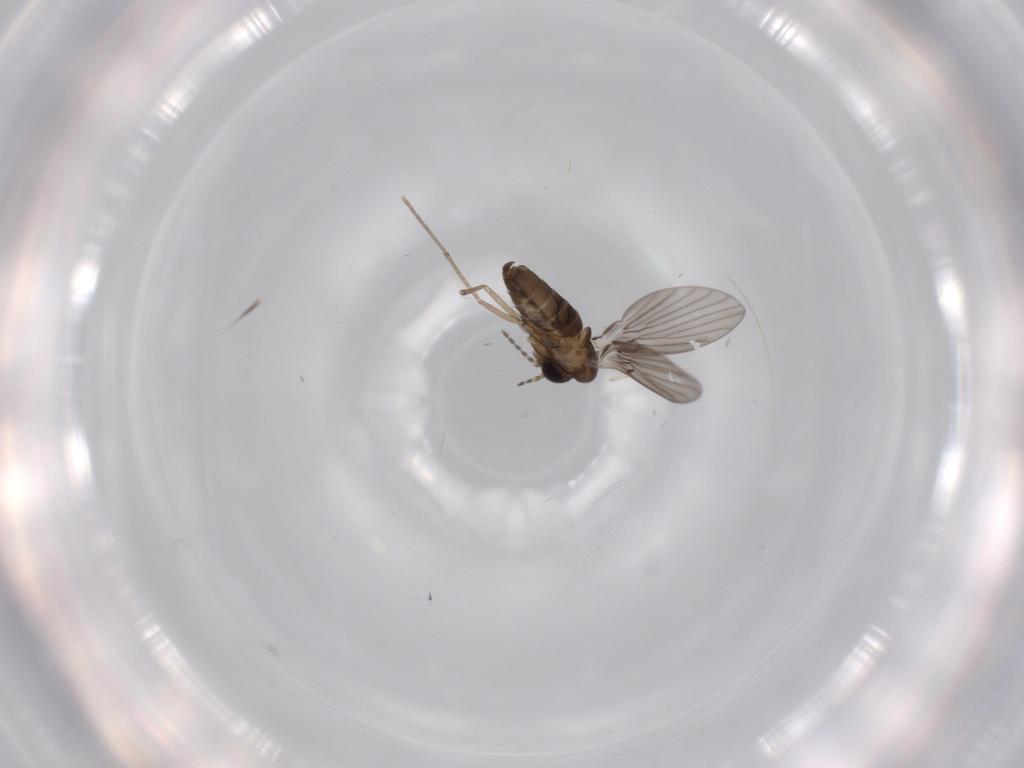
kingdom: Animalia
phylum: Arthropoda
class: Insecta
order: Diptera
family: Psychodidae
